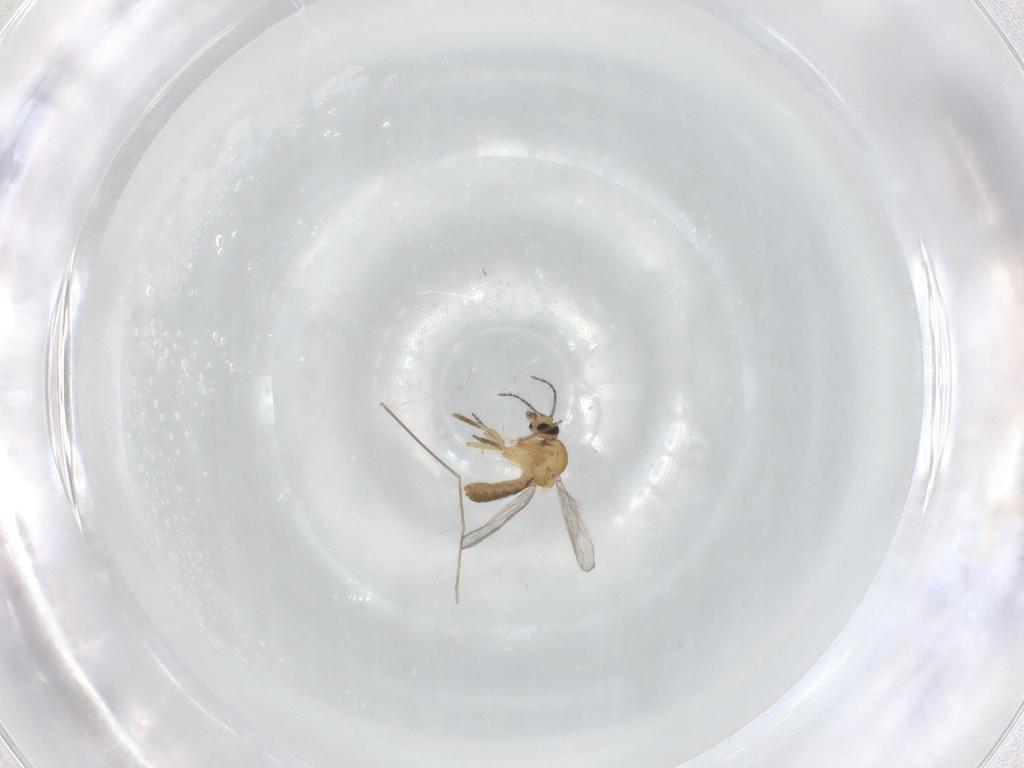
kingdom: Animalia
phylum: Arthropoda
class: Insecta
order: Diptera
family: Ceratopogonidae
